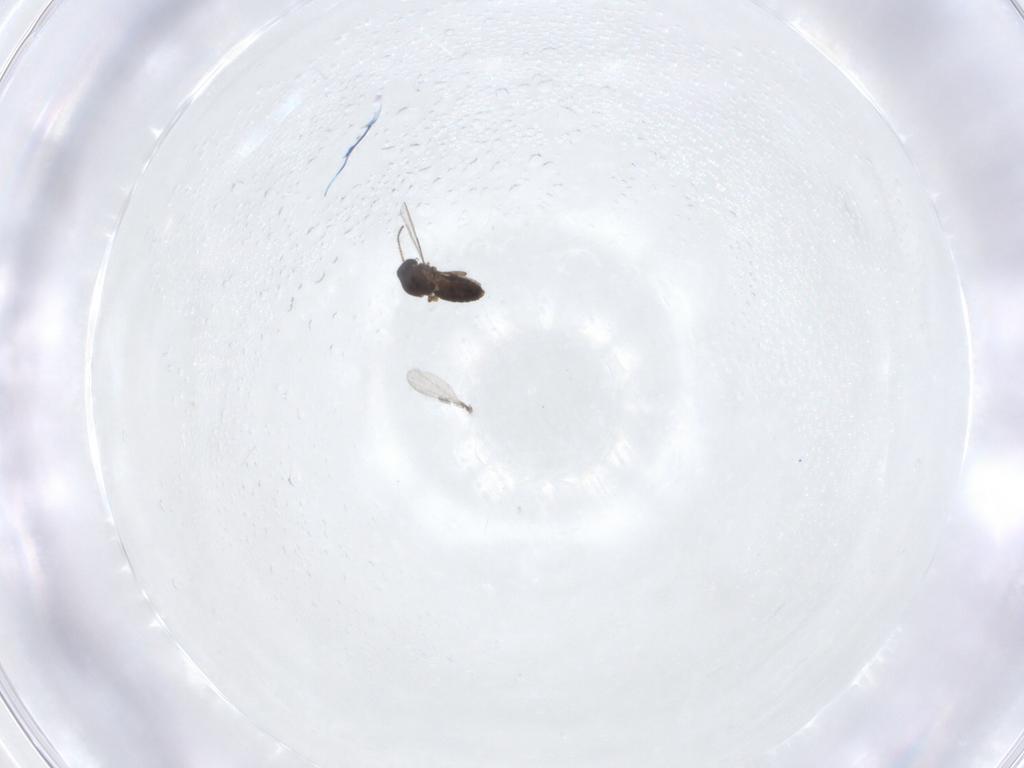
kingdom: Animalia
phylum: Arthropoda
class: Insecta
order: Diptera
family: Ceratopogonidae
